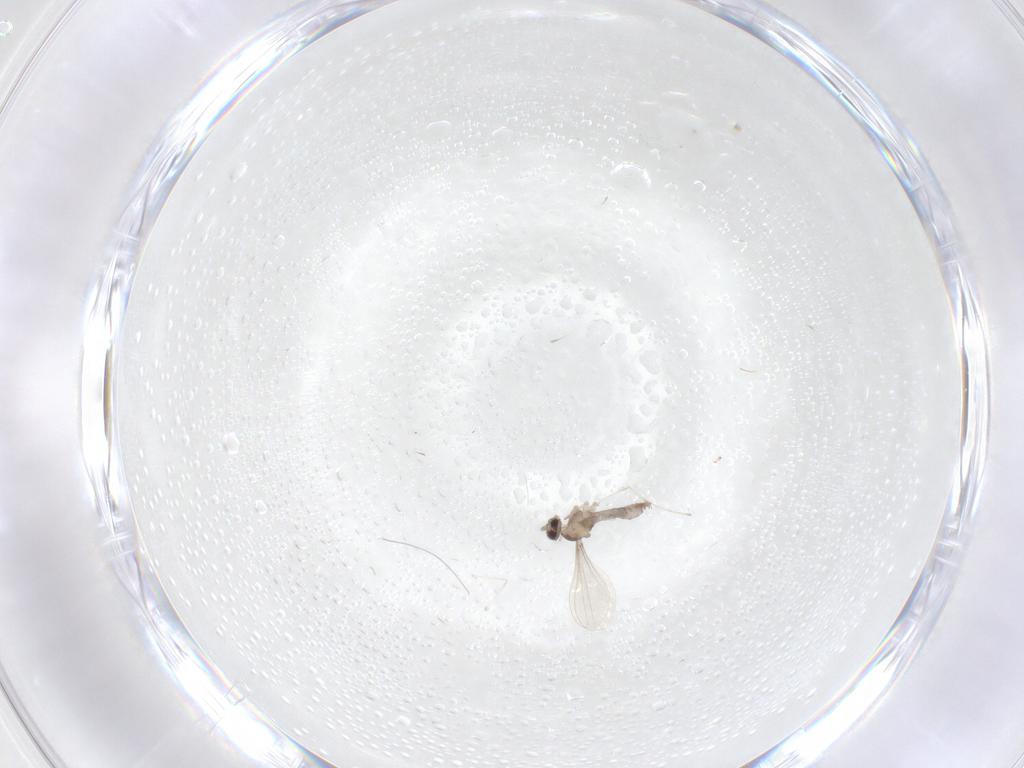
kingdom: Animalia
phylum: Arthropoda
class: Insecta
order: Diptera
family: Cecidomyiidae
